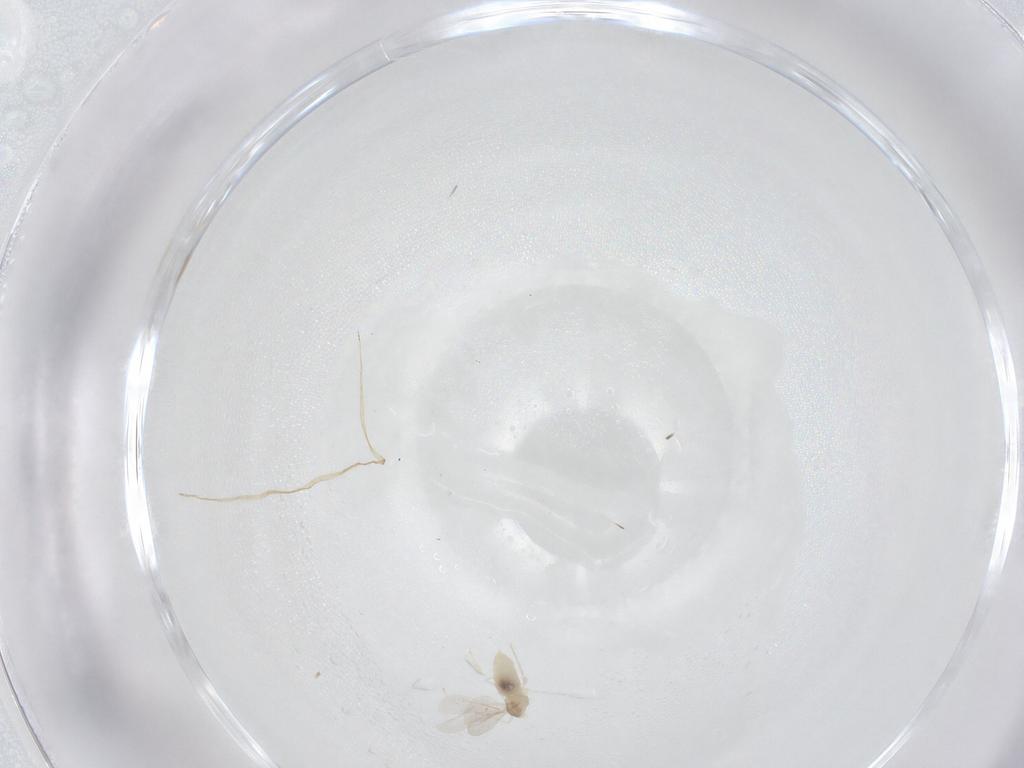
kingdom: Animalia
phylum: Arthropoda
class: Insecta
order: Diptera
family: Cecidomyiidae
